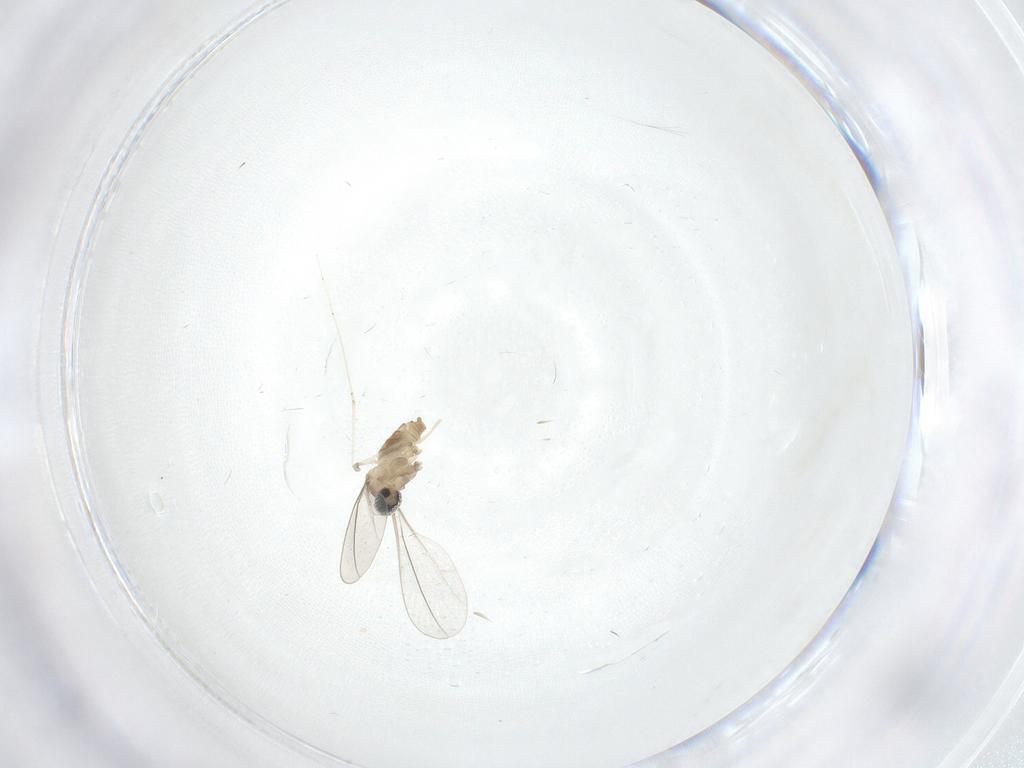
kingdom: Animalia
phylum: Arthropoda
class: Insecta
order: Diptera
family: Cecidomyiidae
